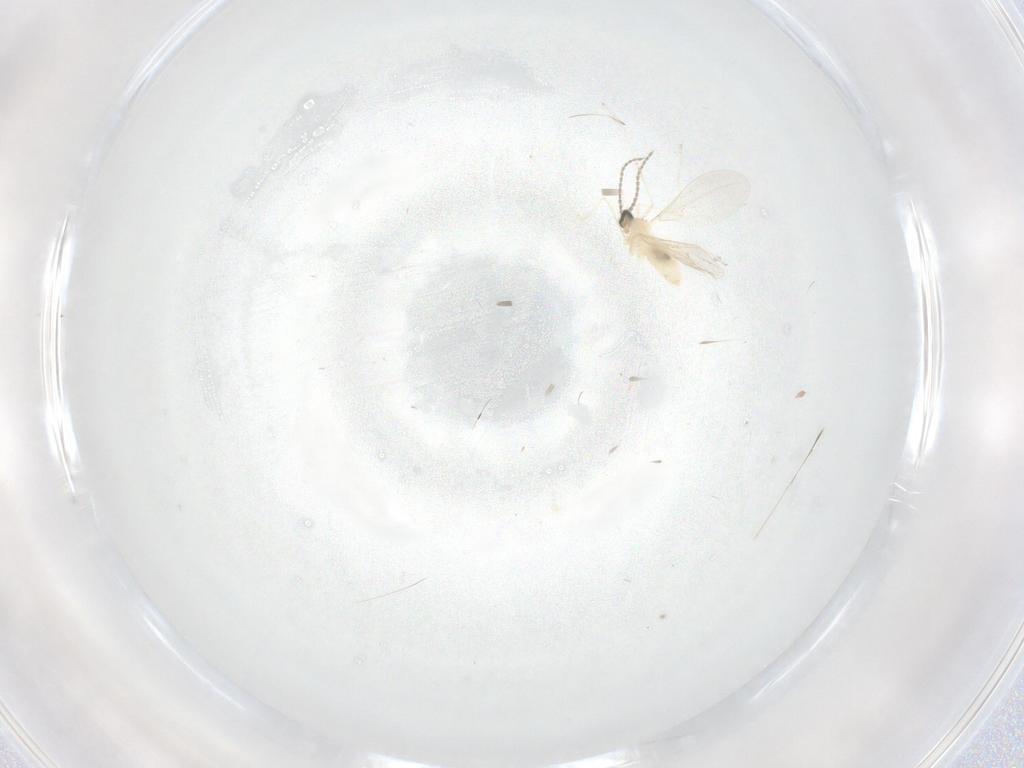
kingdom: Animalia
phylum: Arthropoda
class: Insecta
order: Diptera
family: Cecidomyiidae
